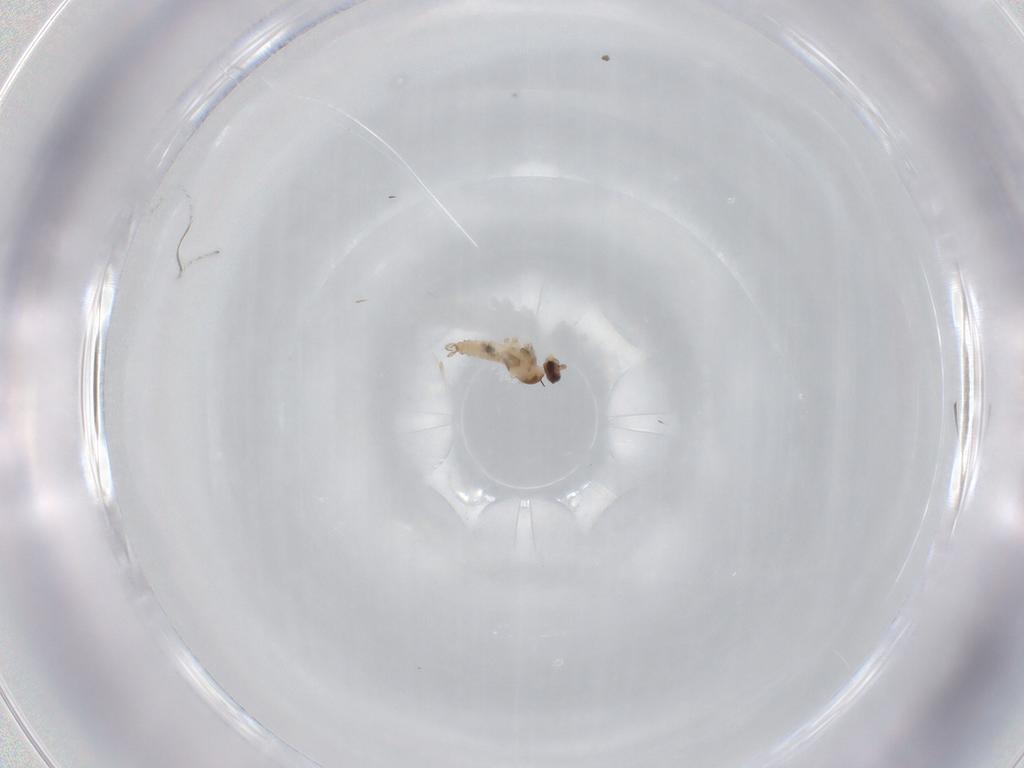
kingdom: Animalia
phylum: Arthropoda
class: Insecta
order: Diptera
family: Cecidomyiidae
